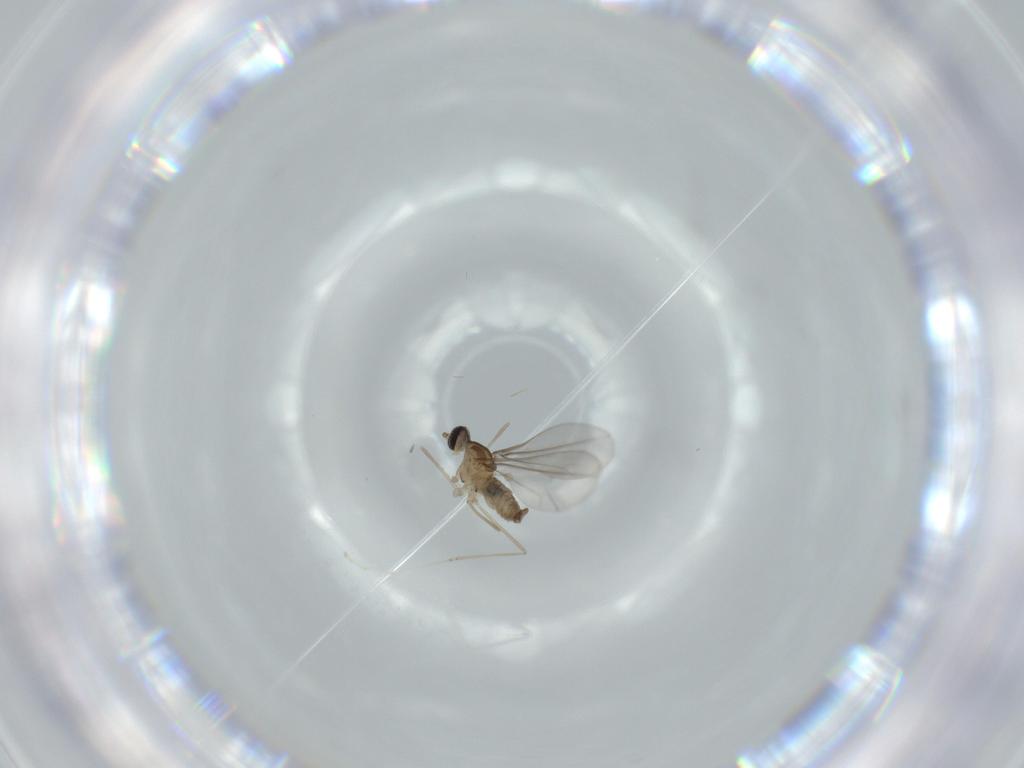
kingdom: Animalia
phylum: Arthropoda
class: Insecta
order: Diptera
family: Cecidomyiidae
